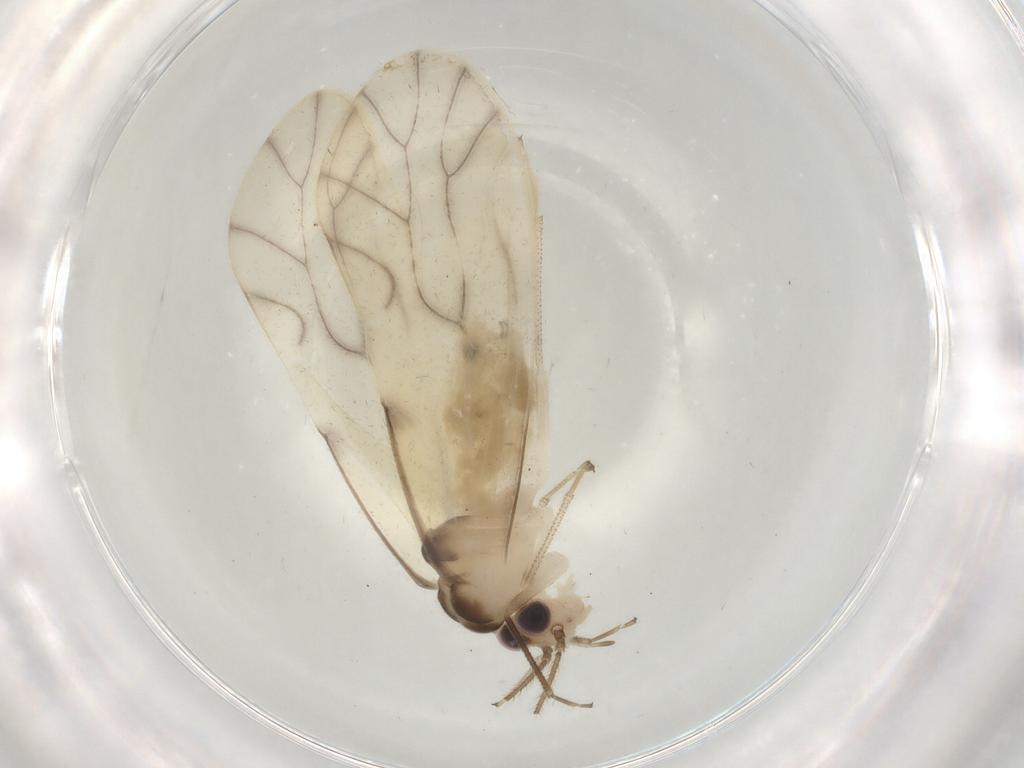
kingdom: Animalia
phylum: Arthropoda
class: Insecta
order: Psocodea
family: Caeciliusidae
